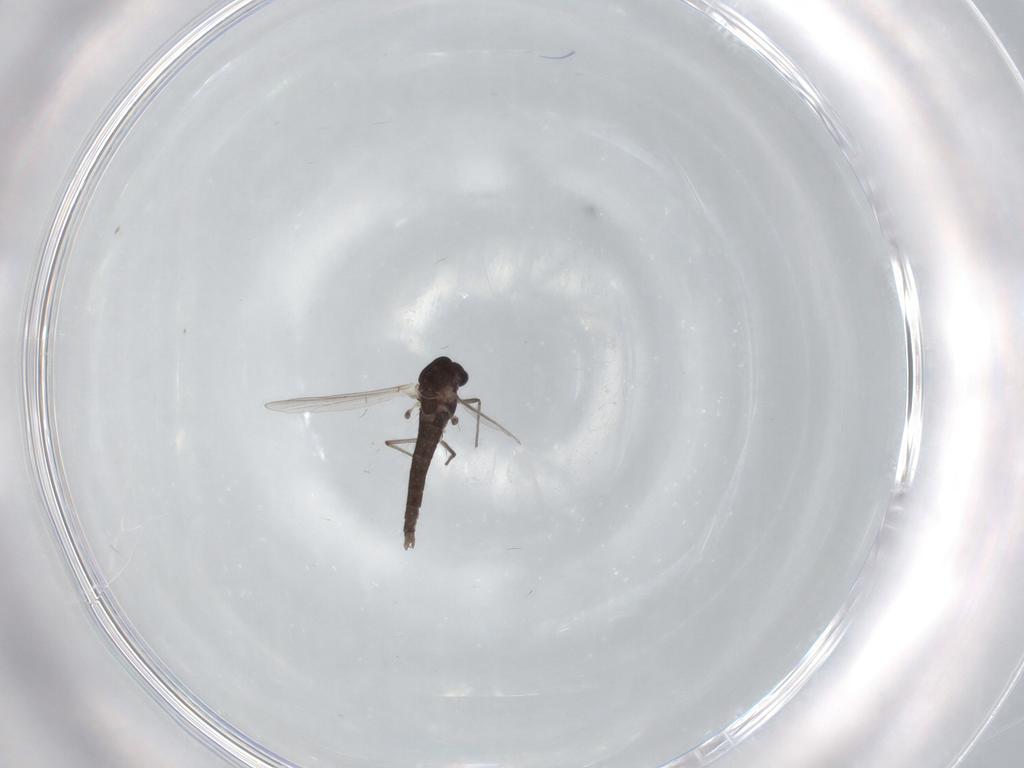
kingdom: Animalia
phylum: Arthropoda
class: Insecta
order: Diptera
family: Chironomidae
